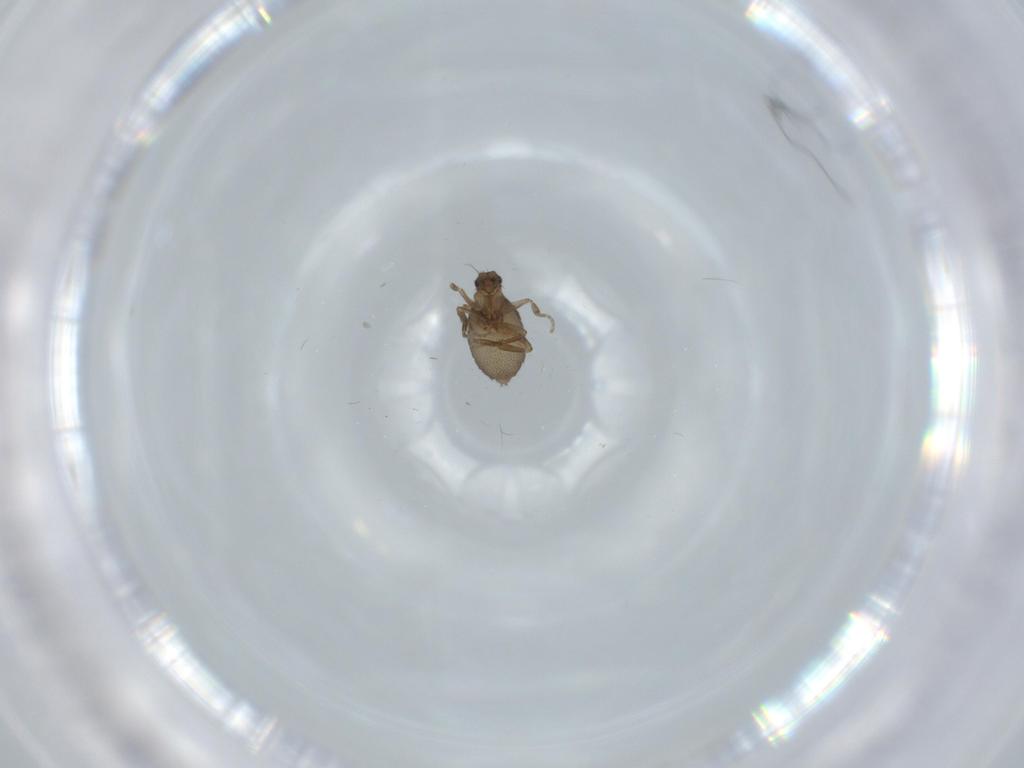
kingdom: Animalia
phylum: Arthropoda
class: Insecta
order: Diptera
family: Phoridae
